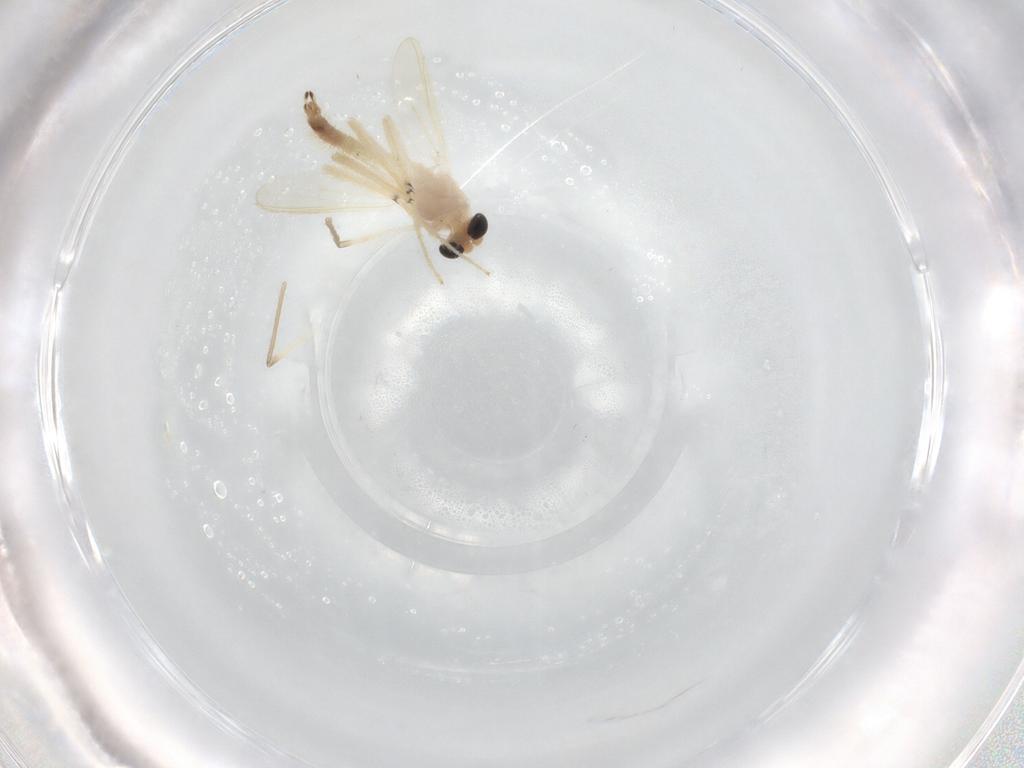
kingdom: Animalia
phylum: Arthropoda
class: Insecta
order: Diptera
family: Chironomidae
